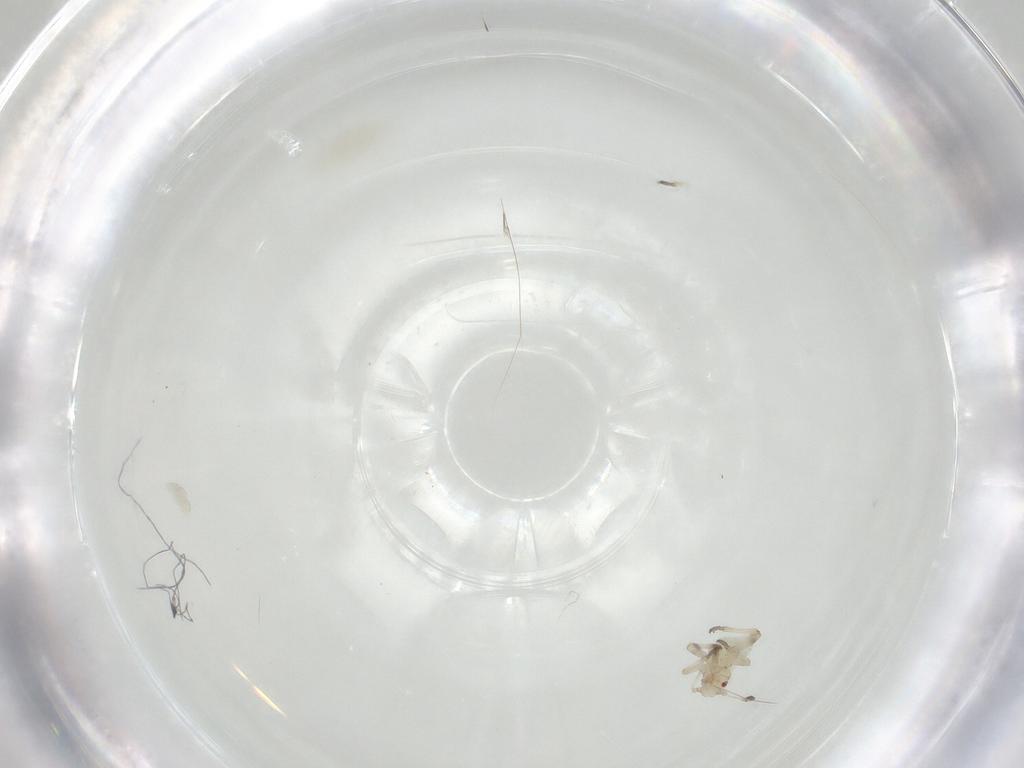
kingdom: Animalia
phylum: Arthropoda
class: Insecta
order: Hemiptera
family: Aphididae
